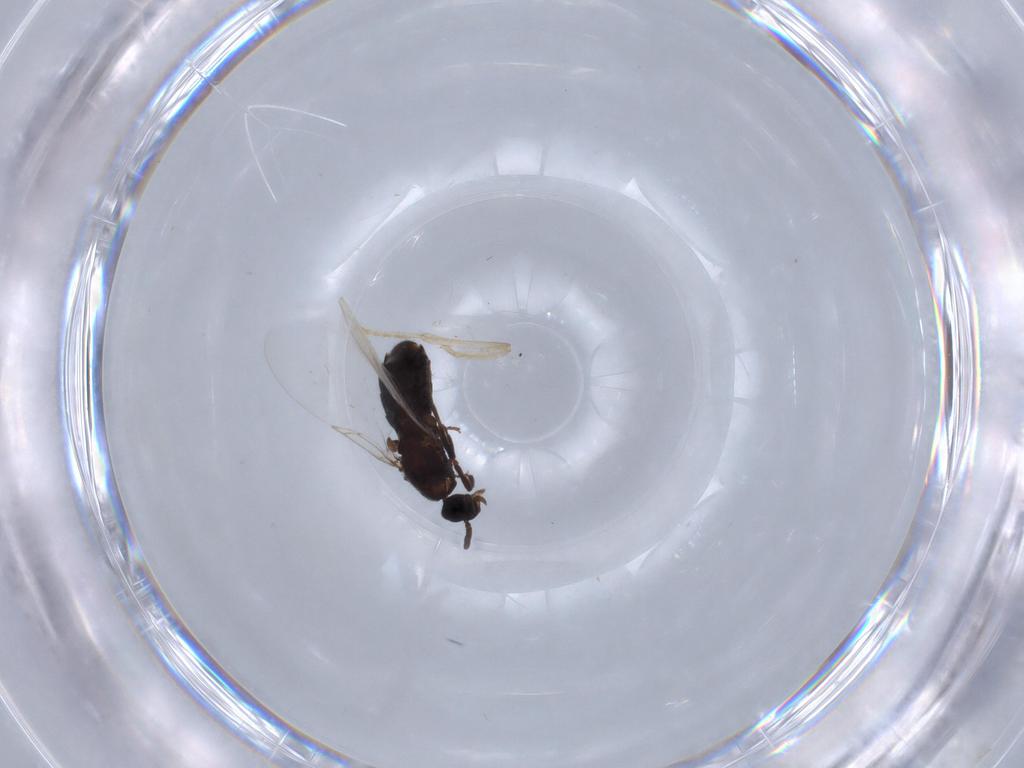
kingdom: Animalia
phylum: Arthropoda
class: Insecta
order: Diptera
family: Scatopsidae
